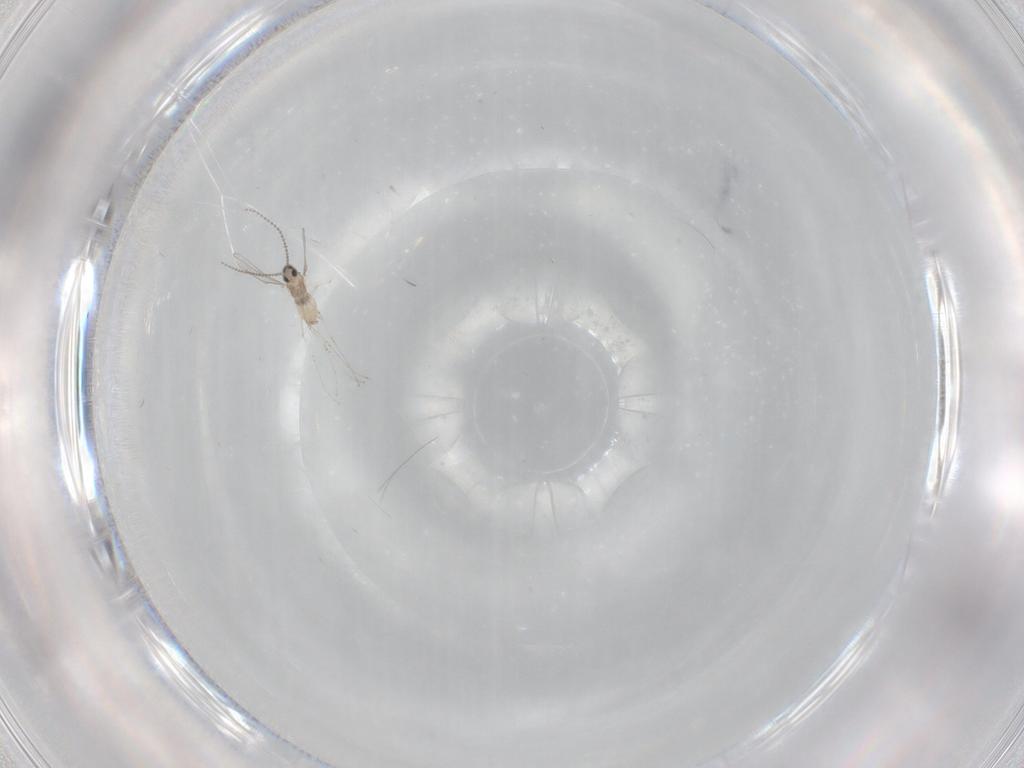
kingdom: Animalia
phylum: Arthropoda
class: Insecta
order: Diptera
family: Cecidomyiidae
